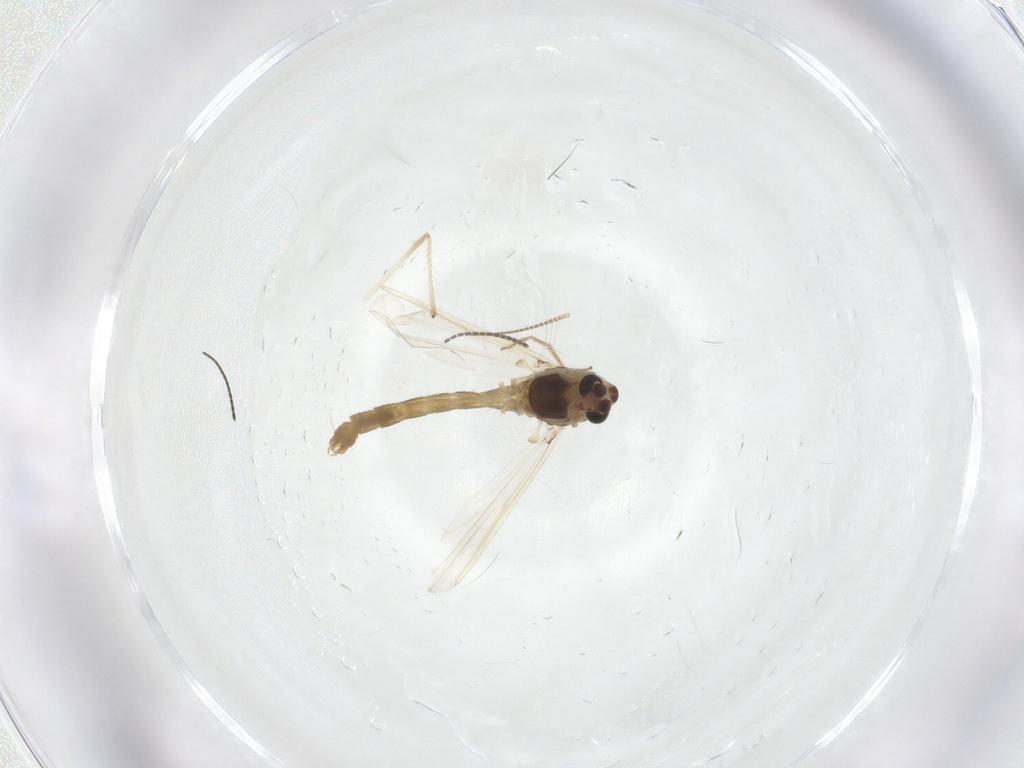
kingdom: Animalia
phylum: Arthropoda
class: Insecta
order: Diptera
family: Chironomidae
